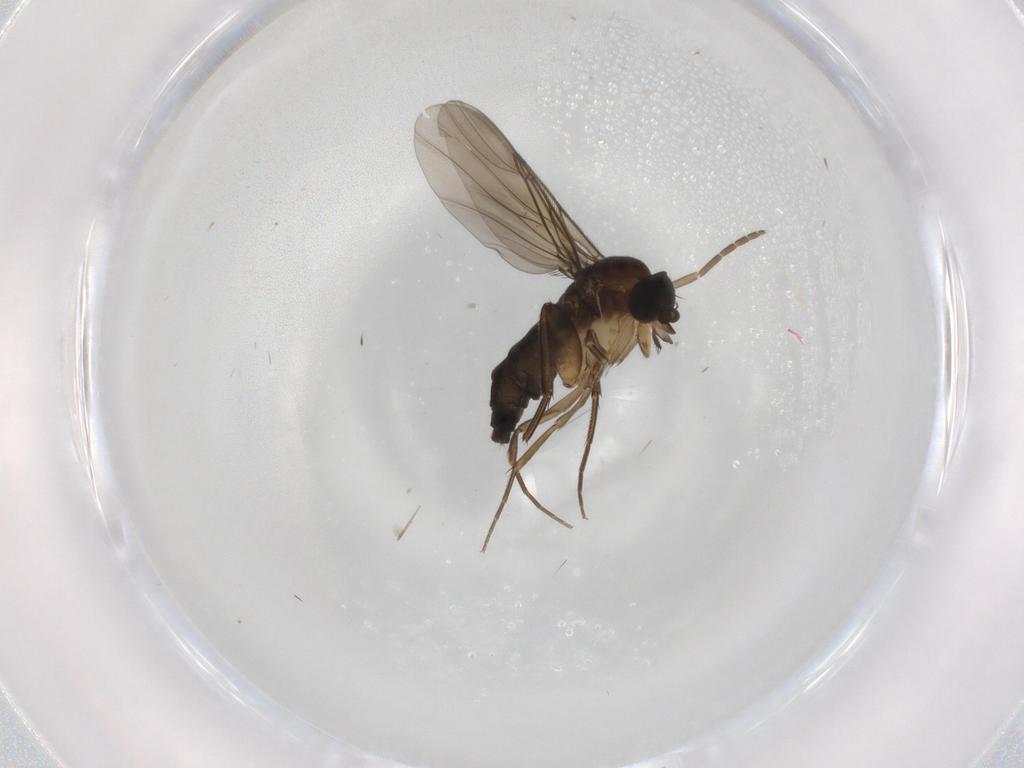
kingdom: Animalia
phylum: Arthropoda
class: Insecta
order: Diptera
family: Phoridae
